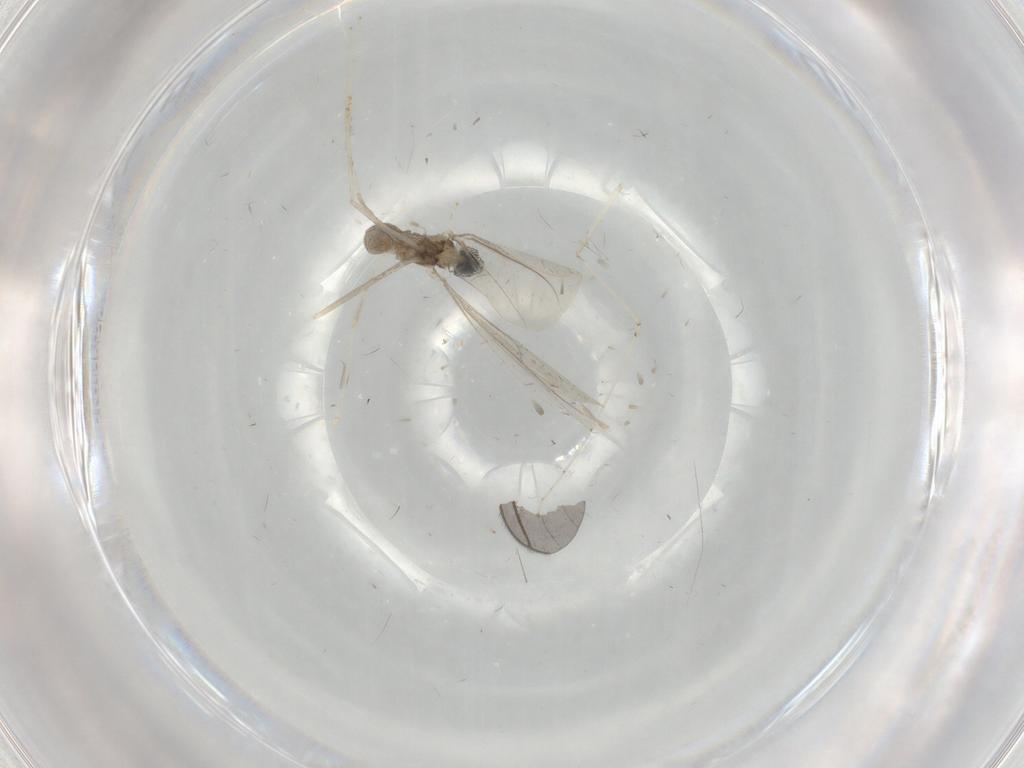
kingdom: Animalia
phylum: Arthropoda
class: Insecta
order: Diptera
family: Cecidomyiidae
